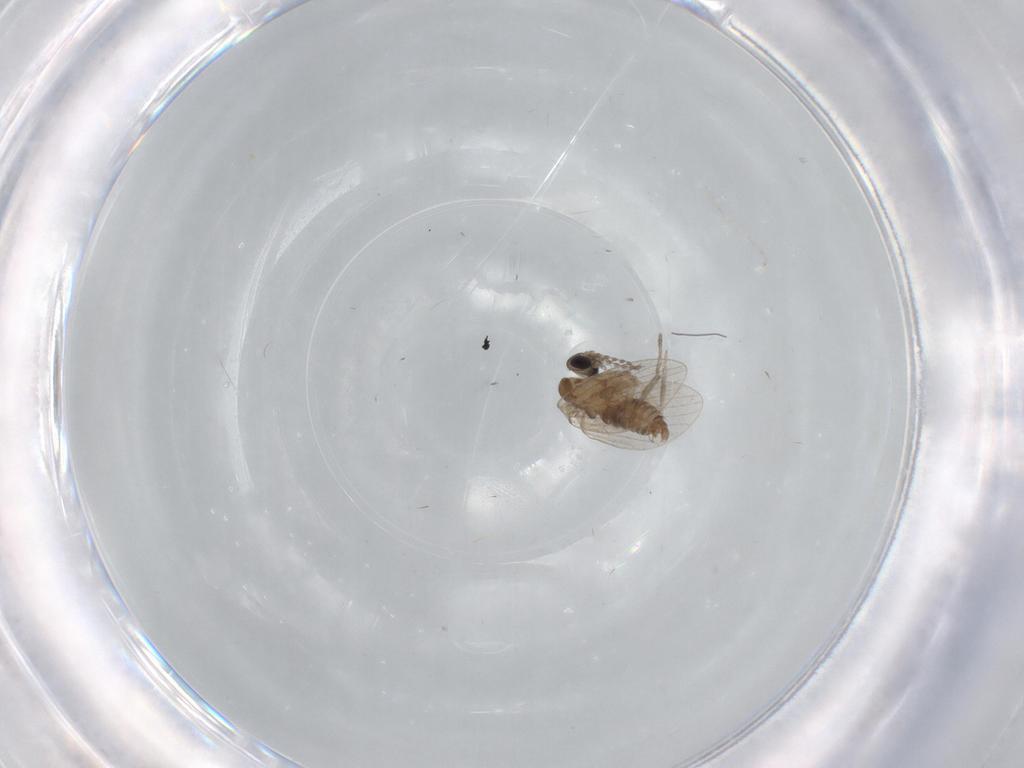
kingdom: Animalia
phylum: Arthropoda
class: Insecta
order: Diptera
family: Psychodidae
